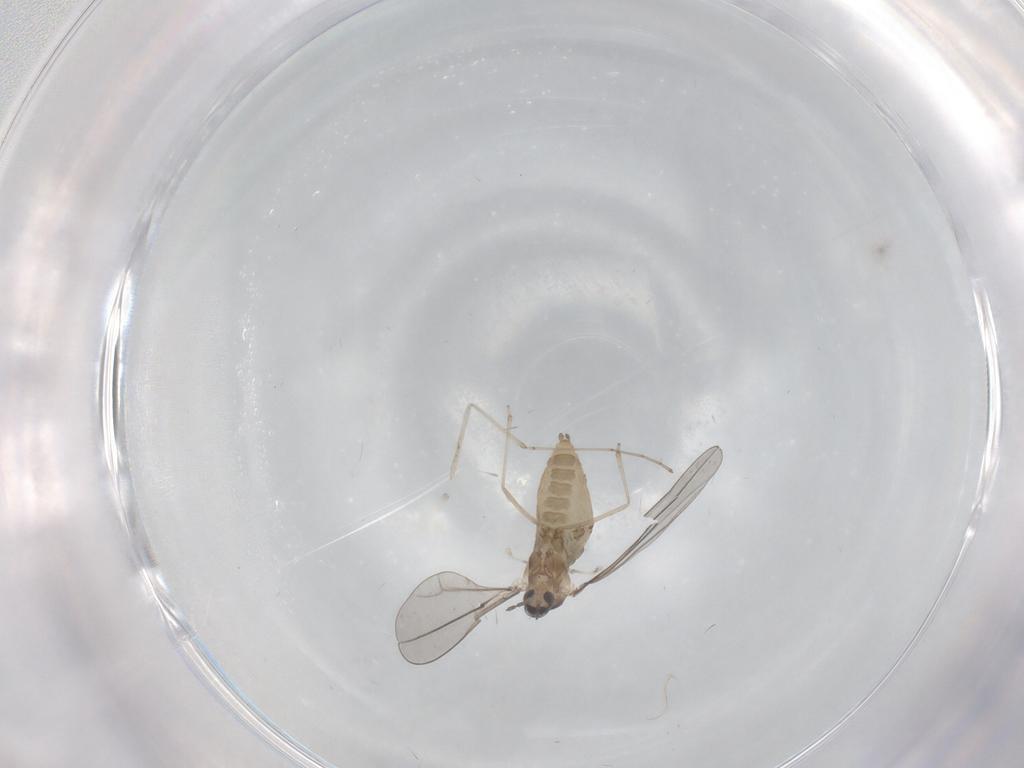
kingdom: Animalia
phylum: Arthropoda
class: Insecta
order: Diptera
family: Cecidomyiidae
